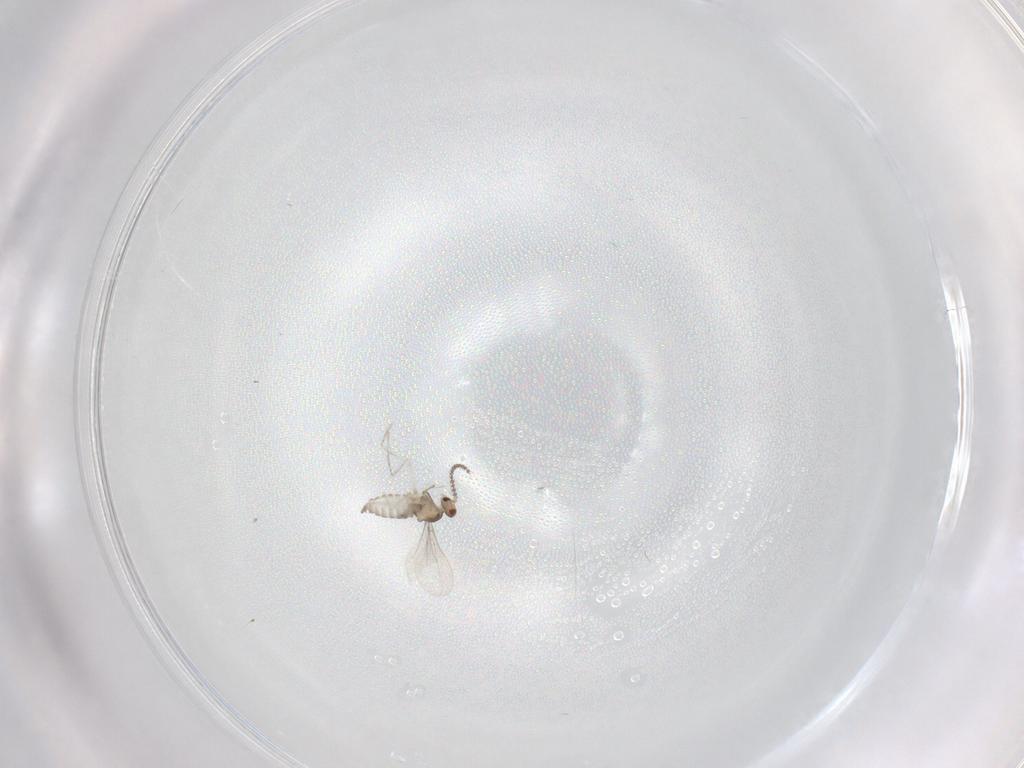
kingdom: Animalia
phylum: Arthropoda
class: Insecta
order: Diptera
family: Cecidomyiidae
